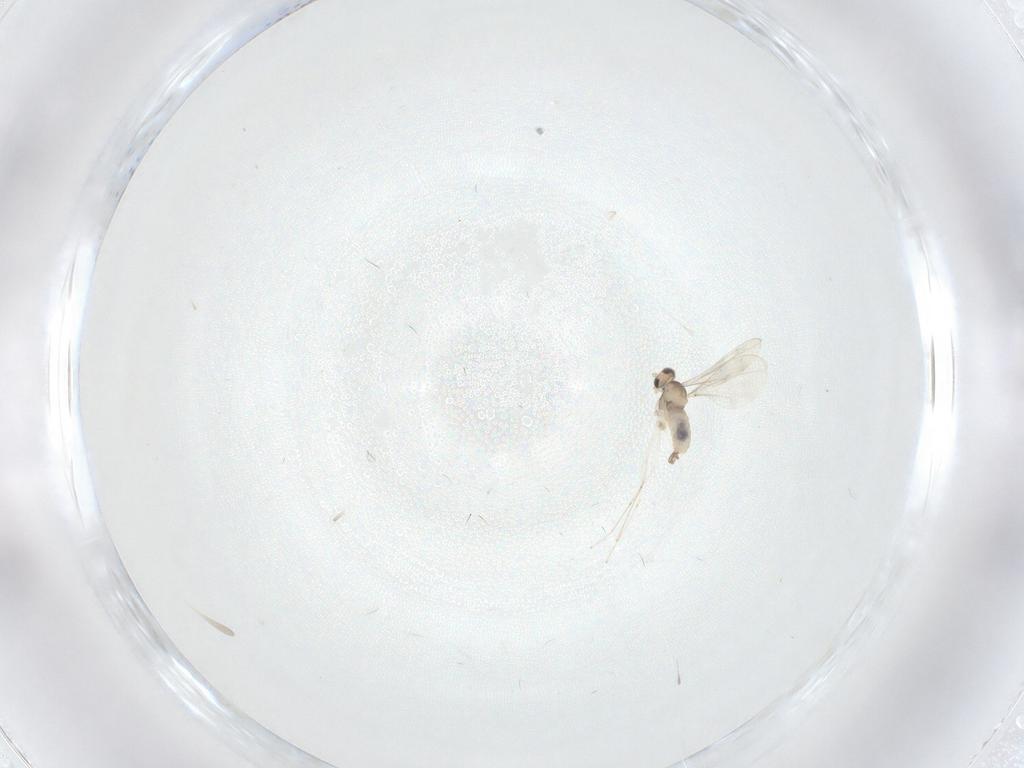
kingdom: Animalia
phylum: Arthropoda
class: Insecta
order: Diptera
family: Psychodidae
